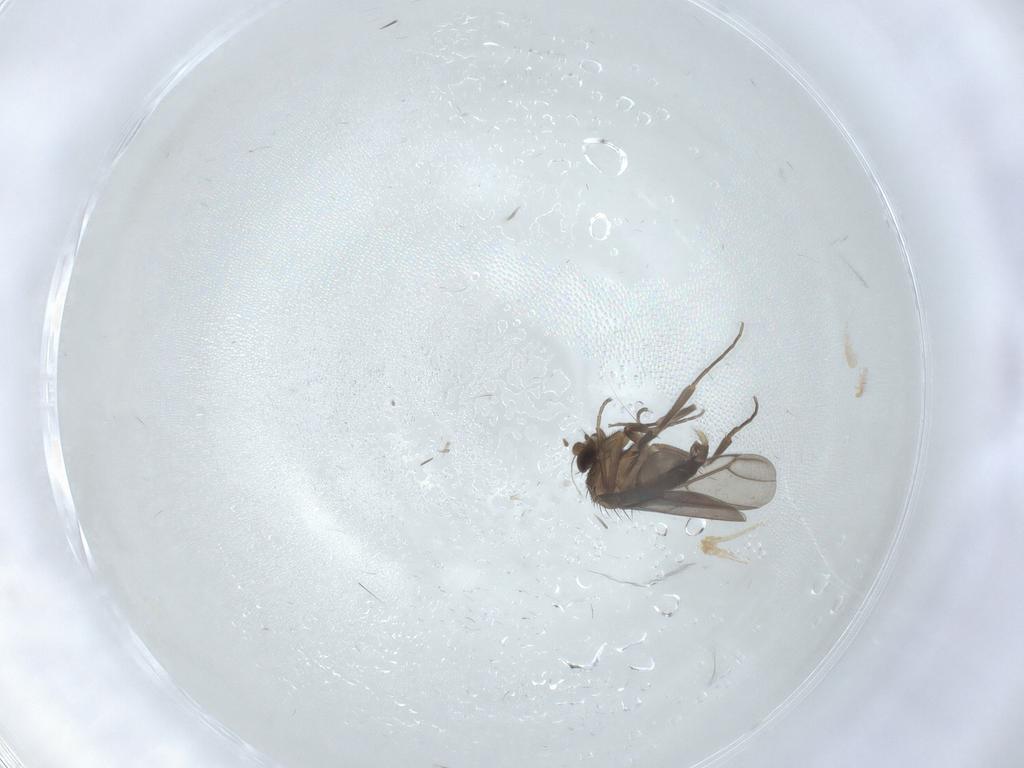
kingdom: Animalia
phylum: Arthropoda
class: Insecta
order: Diptera
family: Phoridae
